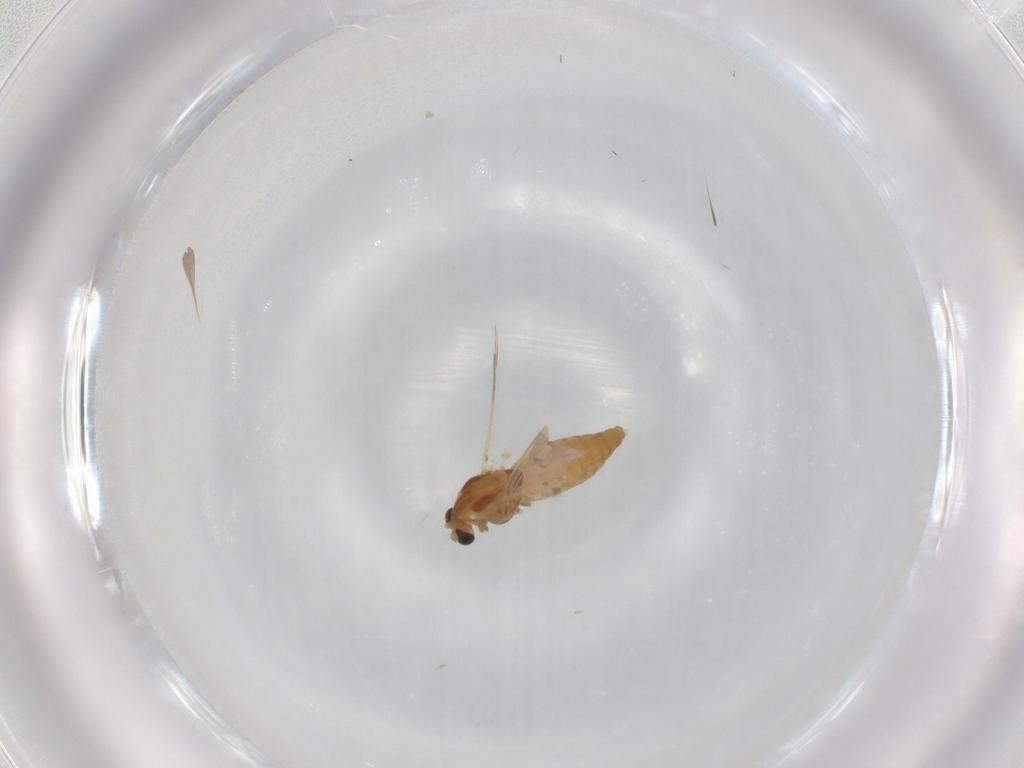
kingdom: Animalia
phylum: Arthropoda
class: Insecta
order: Diptera
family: Chironomidae
